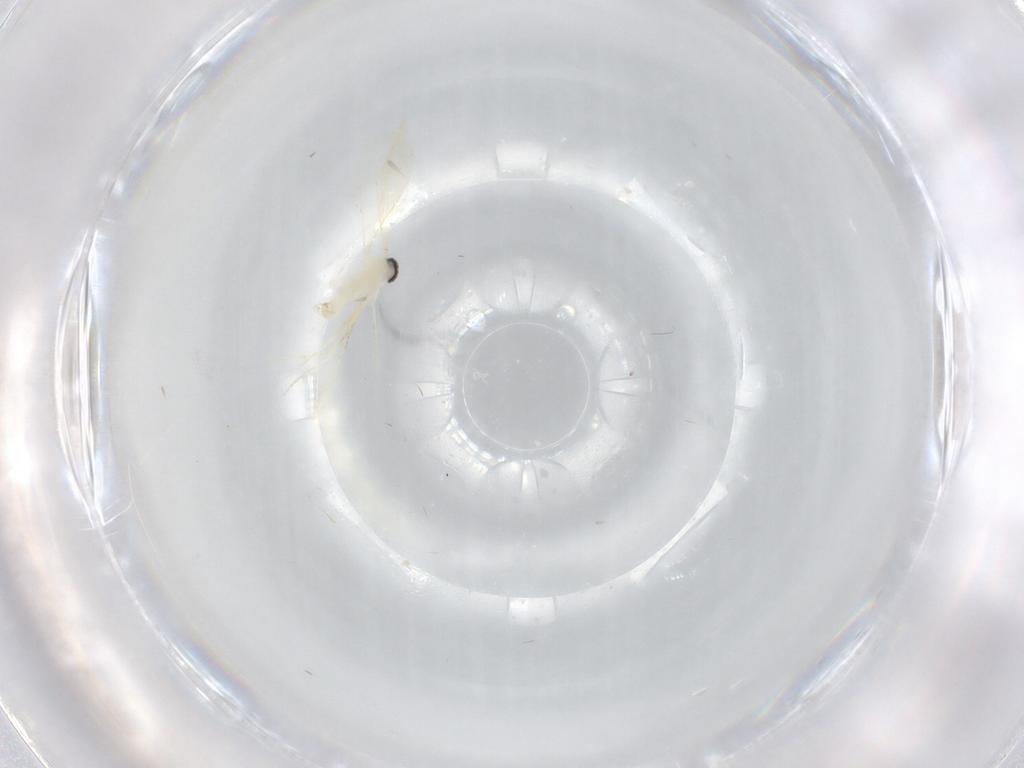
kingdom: Animalia
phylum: Arthropoda
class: Insecta
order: Diptera
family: Cecidomyiidae
